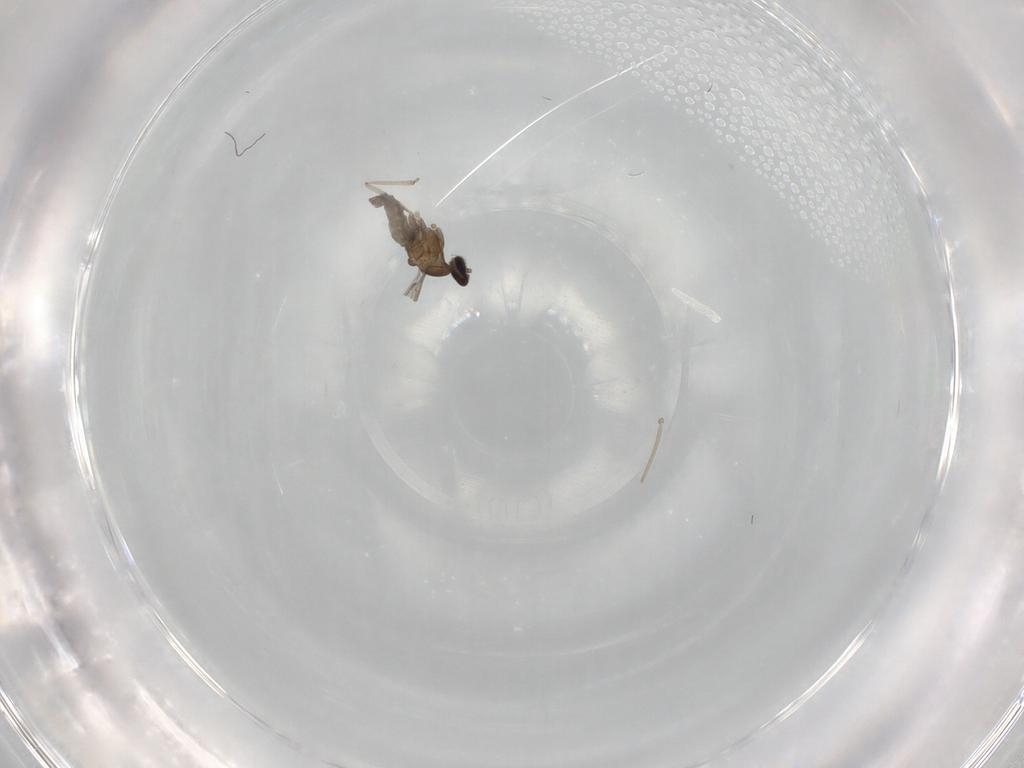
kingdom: Animalia
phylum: Arthropoda
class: Insecta
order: Diptera
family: Cecidomyiidae
